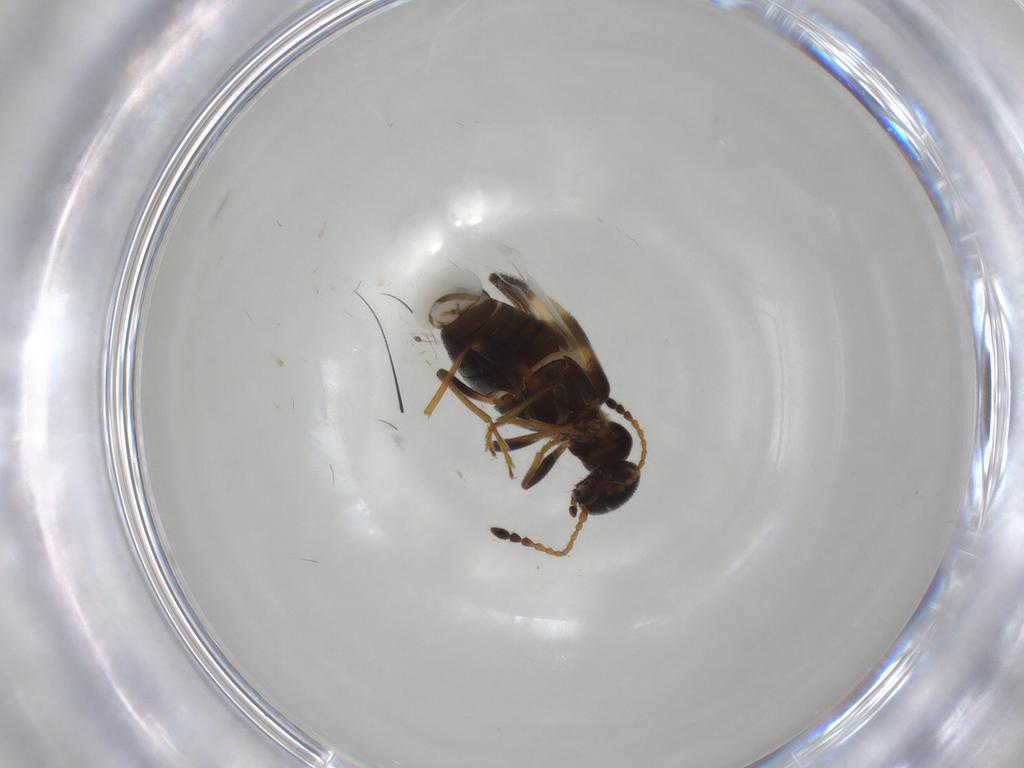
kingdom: Animalia
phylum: Arthropoda
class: Insecta
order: Coleoptera
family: Anthicidae
